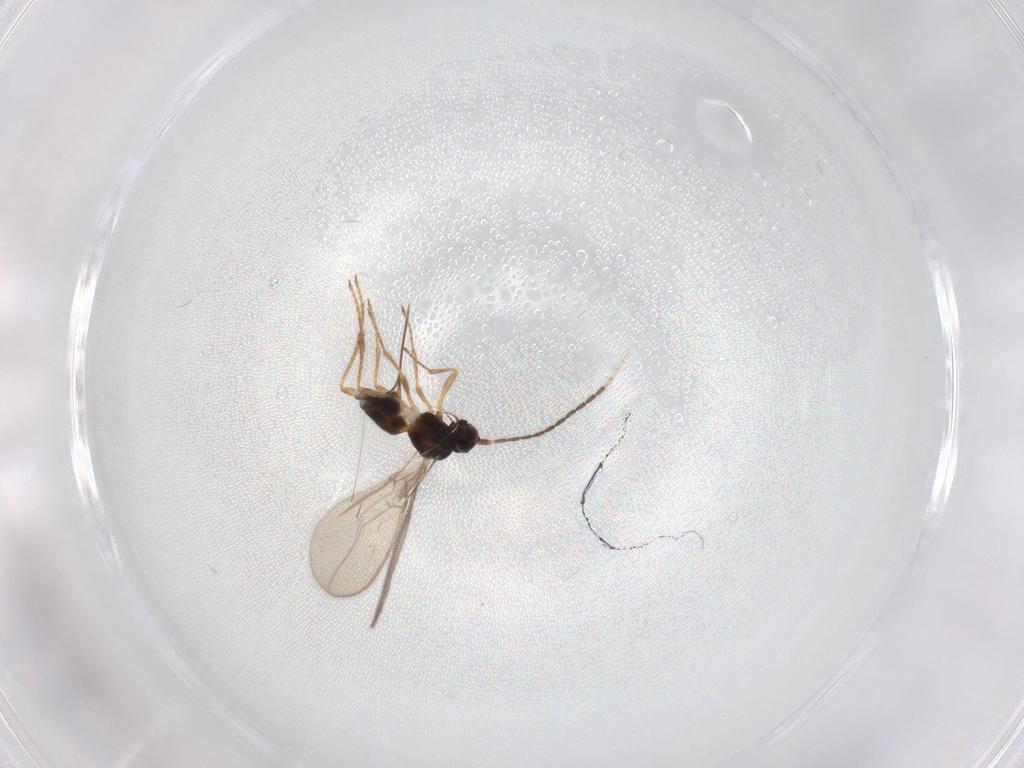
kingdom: Animalia
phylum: Arthropoda
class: Insecta
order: Hymenoptera
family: Braconidae
